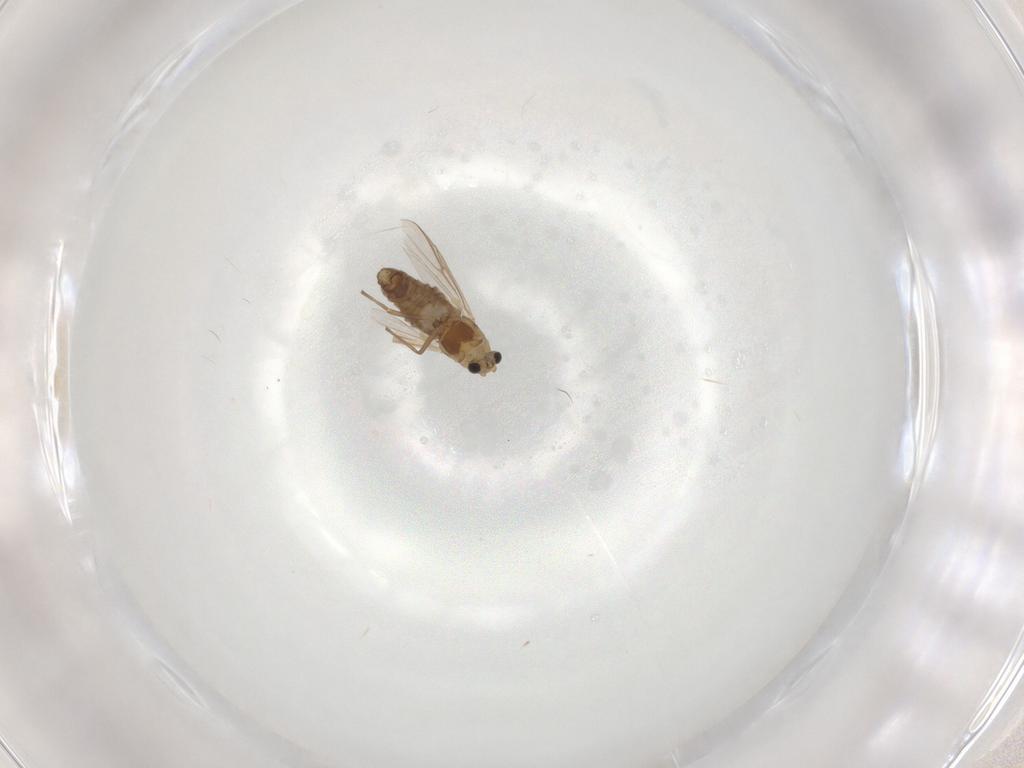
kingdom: Animalia
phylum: Arthropoda
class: Insecta
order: Diptera
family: Chironomidae
